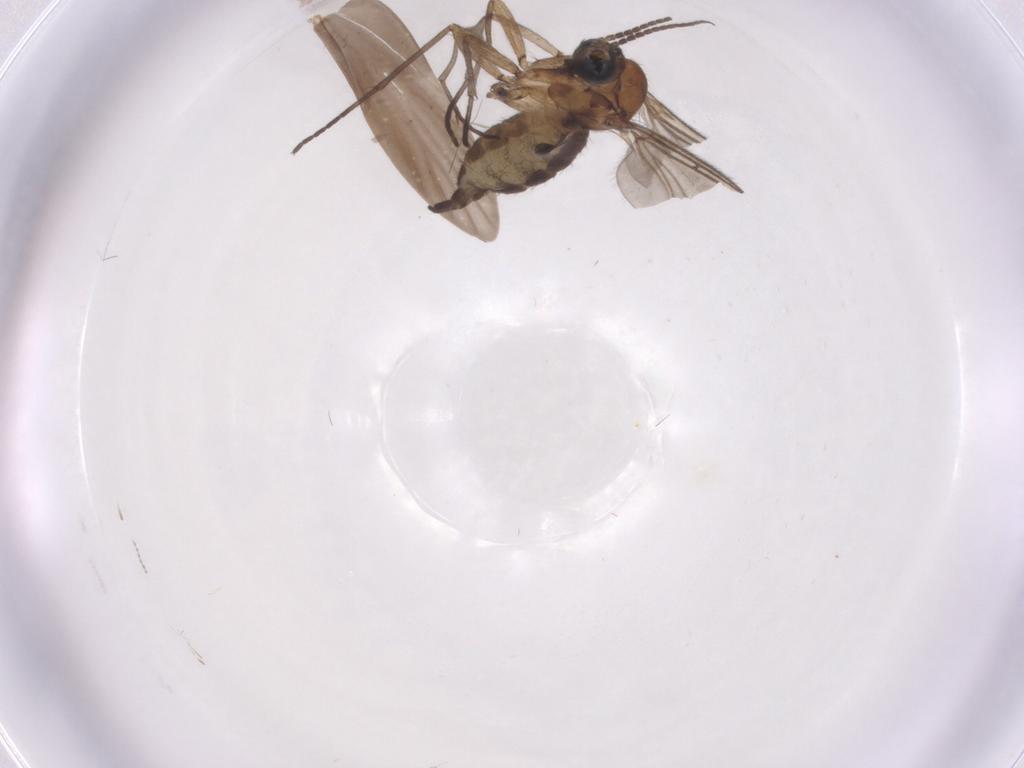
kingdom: Animalia
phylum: Arthropoda
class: Insecta
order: Diptera
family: Sciaridae
